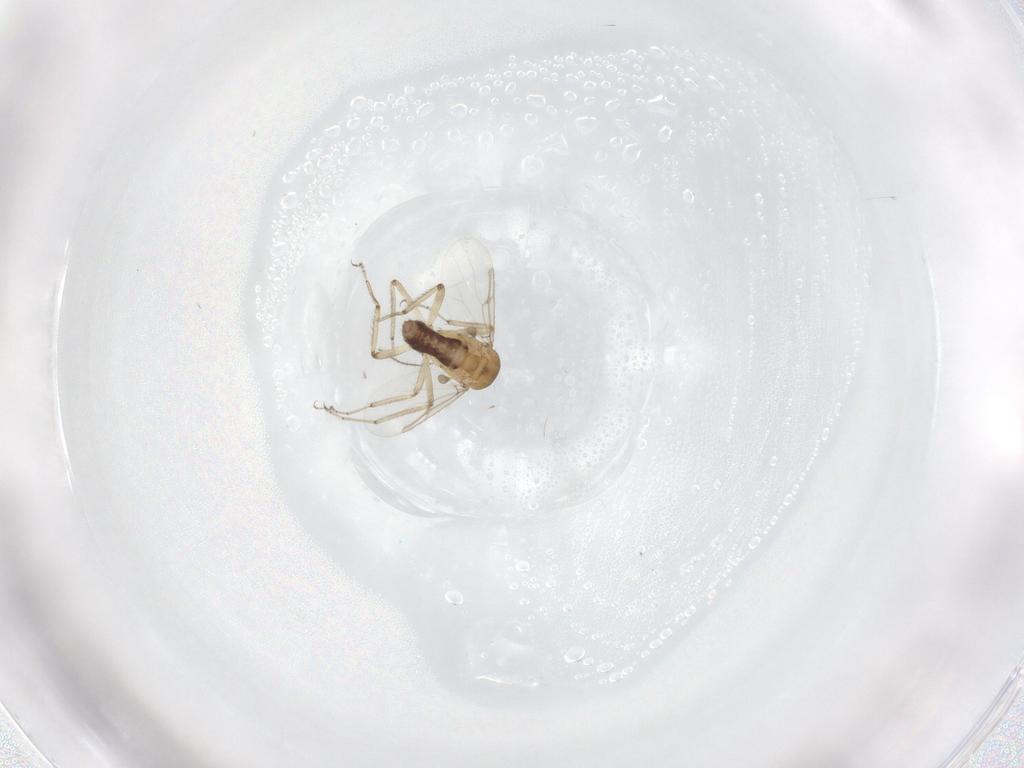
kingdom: Animalia
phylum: Arthropoda
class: Insecta
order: Diptera
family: Ceratopogonidae
